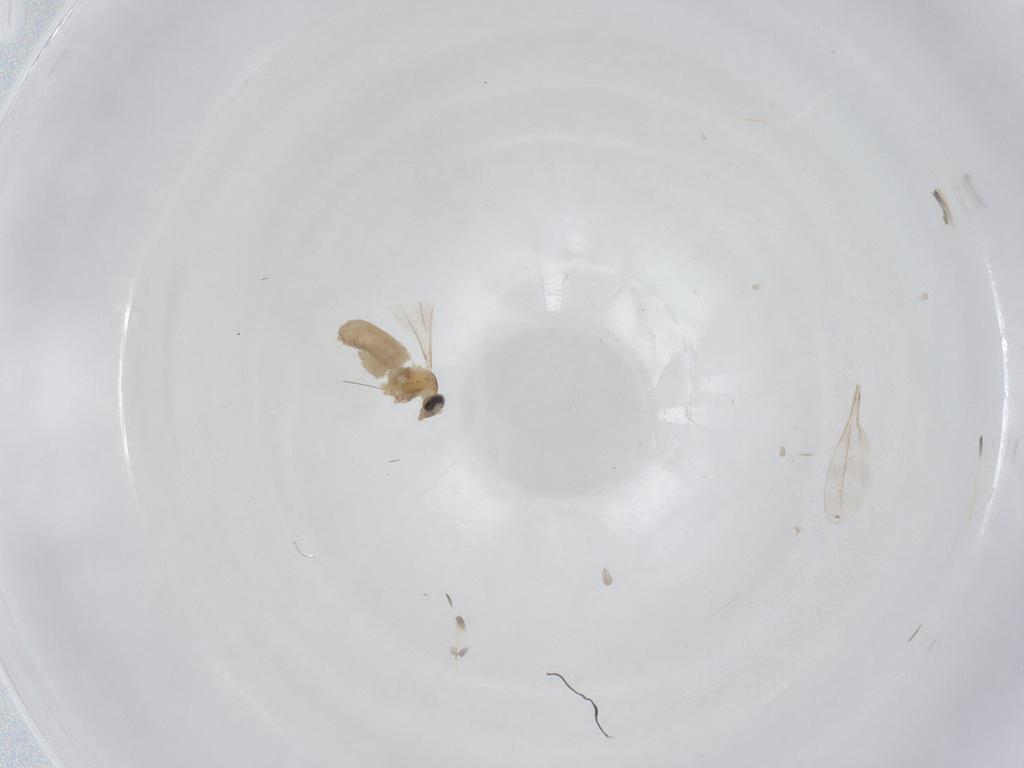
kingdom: Animalia
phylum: Arthropoda
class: Insecta
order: Diptera
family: Cecidomyiidae
